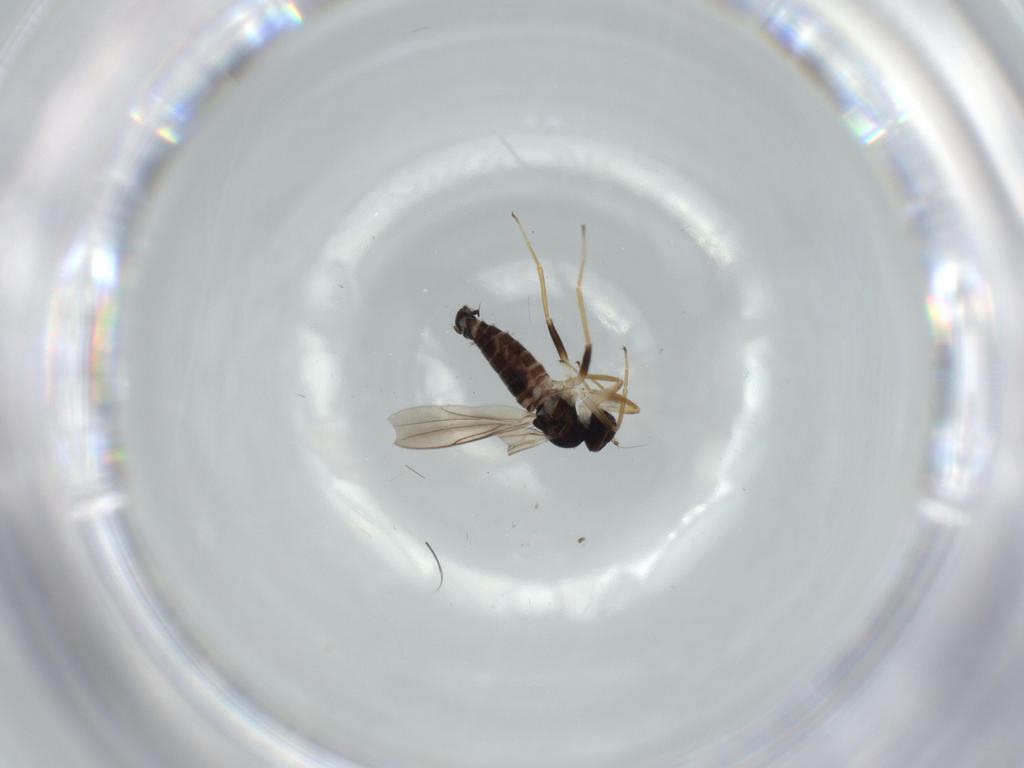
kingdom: Animalia
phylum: Arthropoda
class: Insecta
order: Diptera
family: Hybotidae
